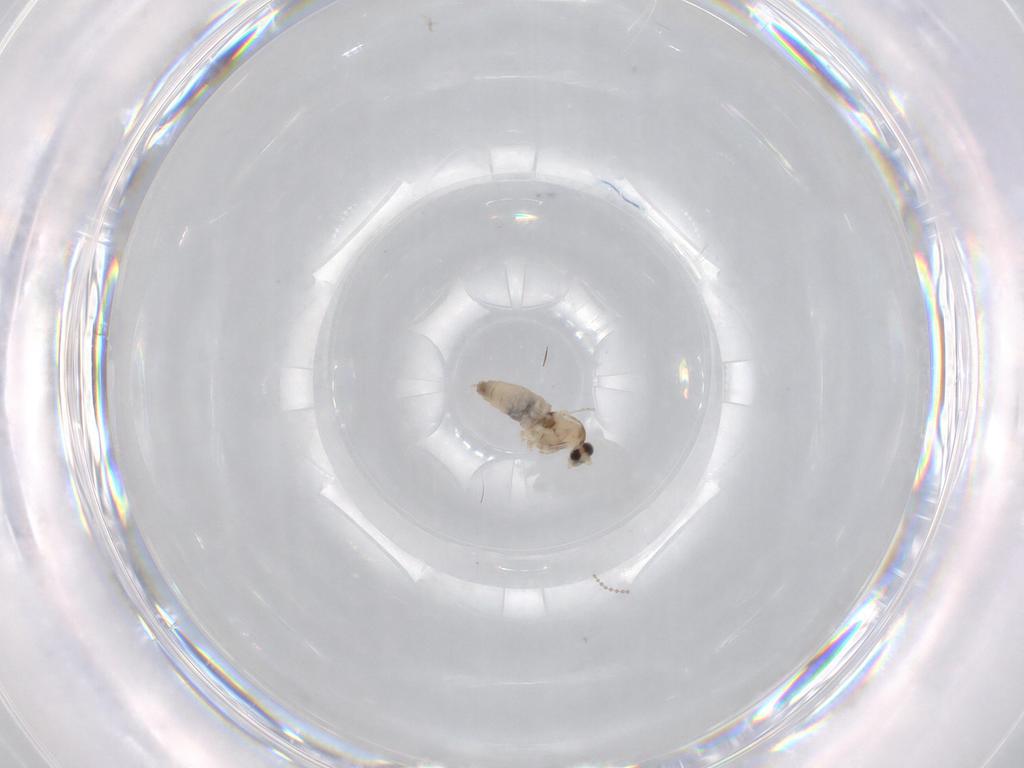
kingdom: Animalia
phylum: Arthropoda
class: Insecta
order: Diptera
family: Cecidomyiidae
